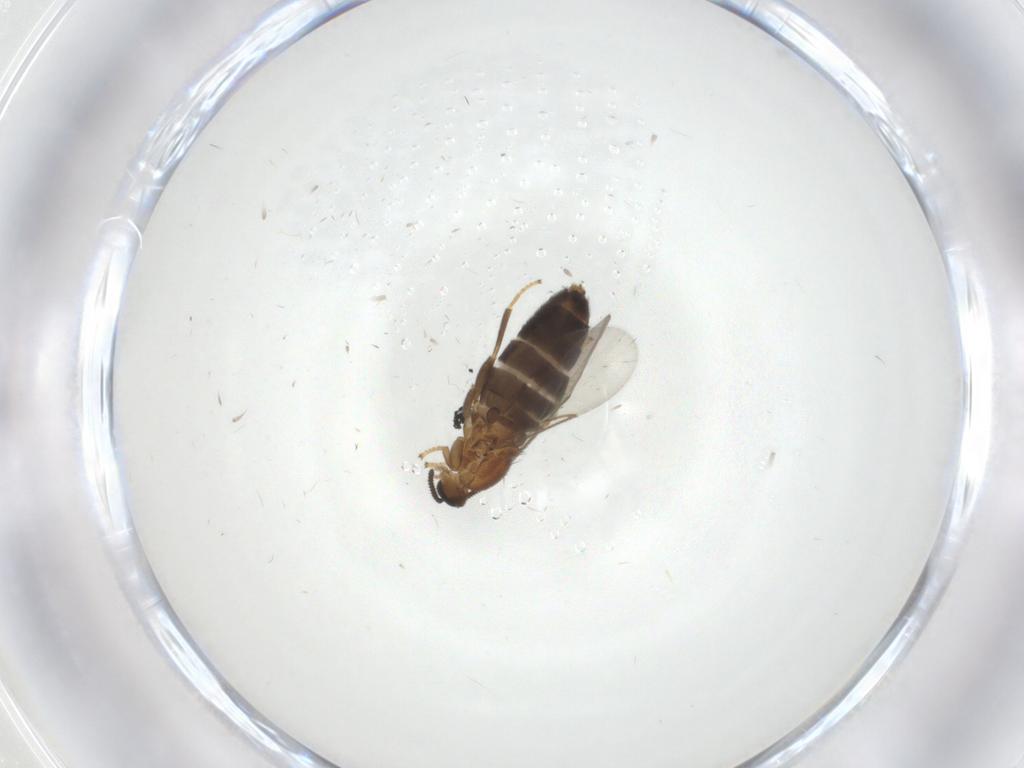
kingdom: Animalia
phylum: Arthropoda
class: Insecta
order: Diptera
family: Scatopsidae
